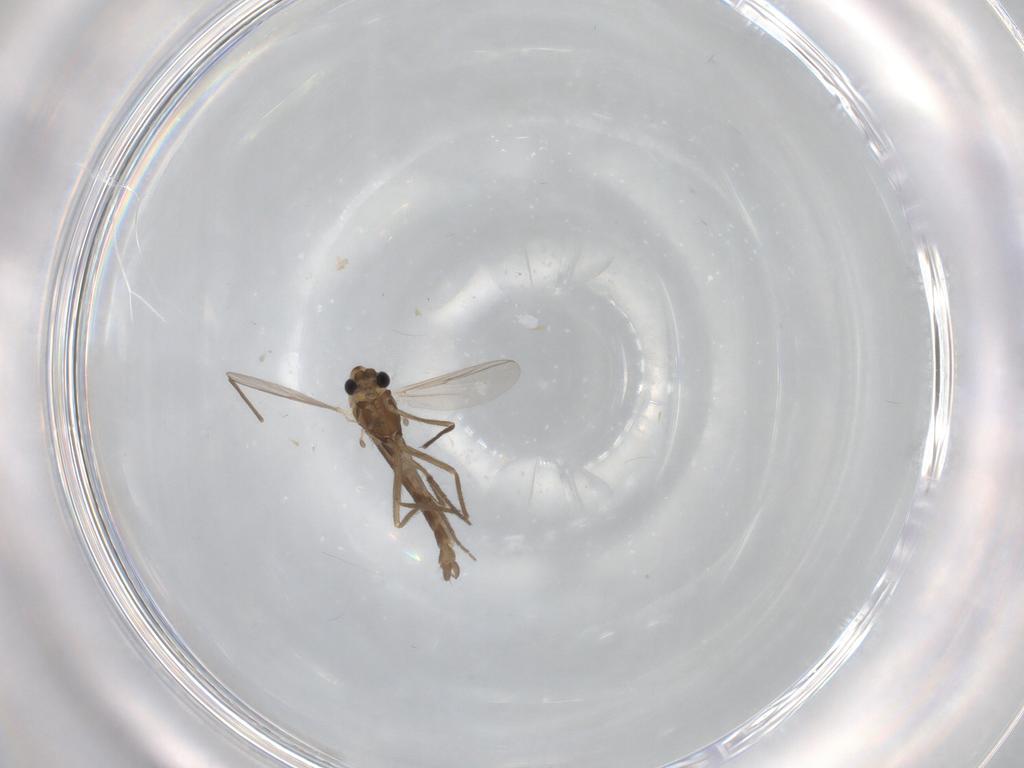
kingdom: Animalia
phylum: Arthropoda
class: Insecta
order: Diptera
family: Chironomidae
